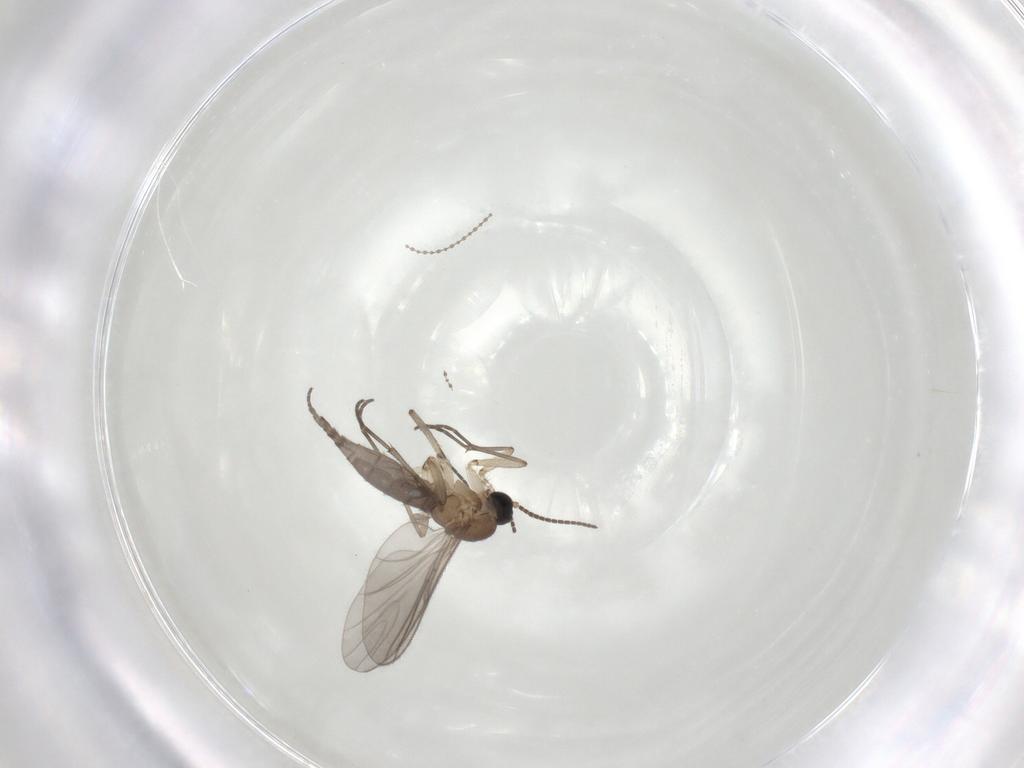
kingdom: Animalia
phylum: Arthropoda
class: Insecta
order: Diptera
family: Sciaridae
